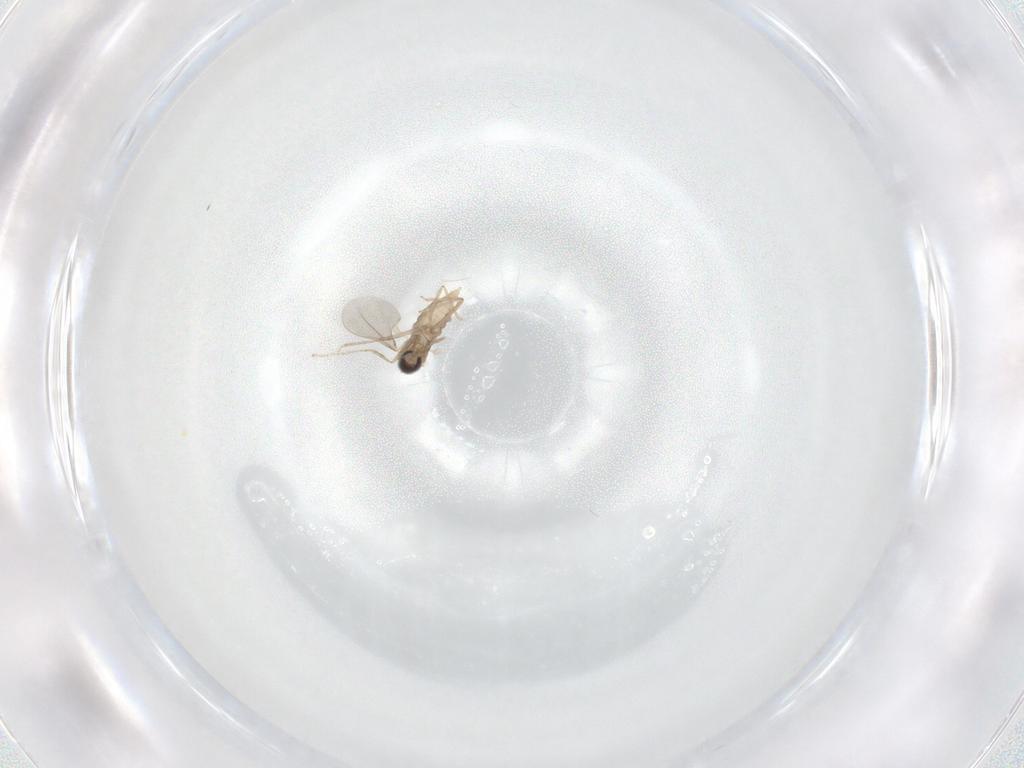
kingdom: Animalia
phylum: Arthropoda
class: Insecta
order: Diptera
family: Cecidomyiidae
